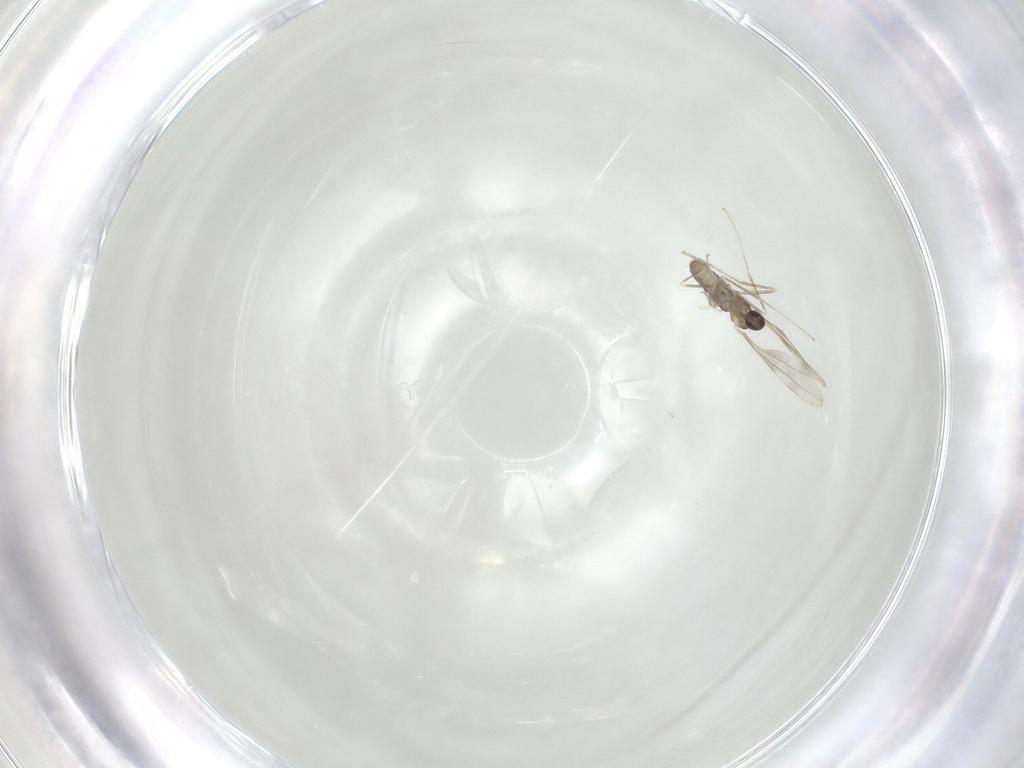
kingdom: Animalia
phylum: Arthropoda
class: Insecta
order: Diptera
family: Cecidomyiidae
